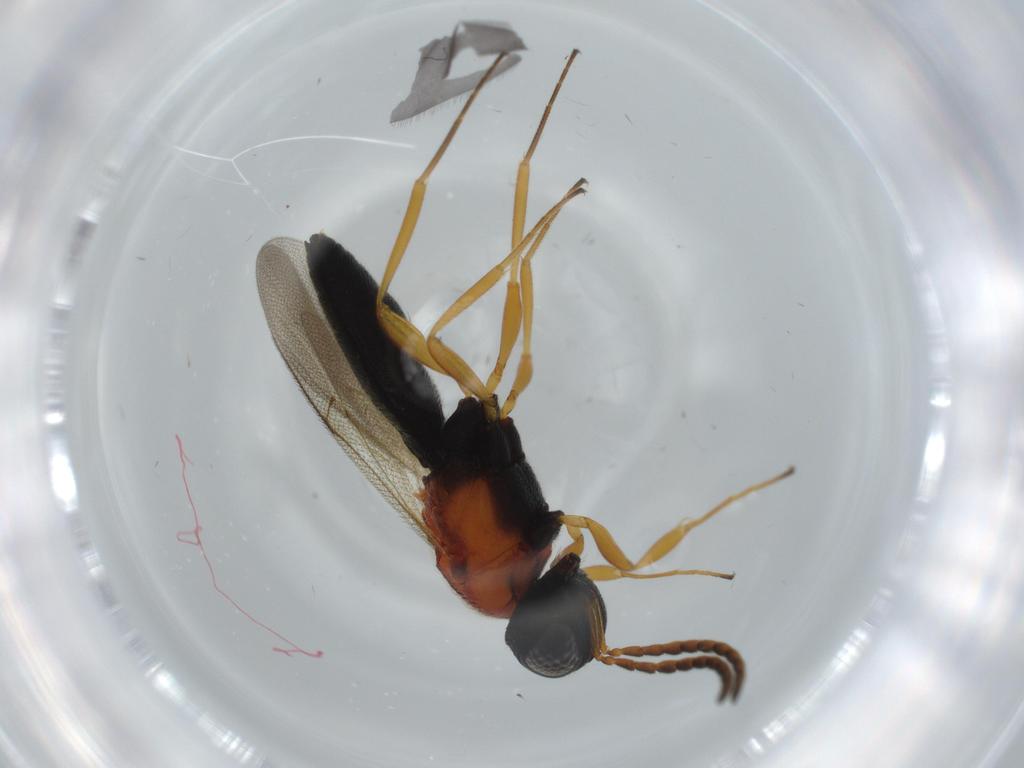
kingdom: Animalia
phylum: Arthropoda
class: Insecta
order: Hymenoptera
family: Scelionidae
